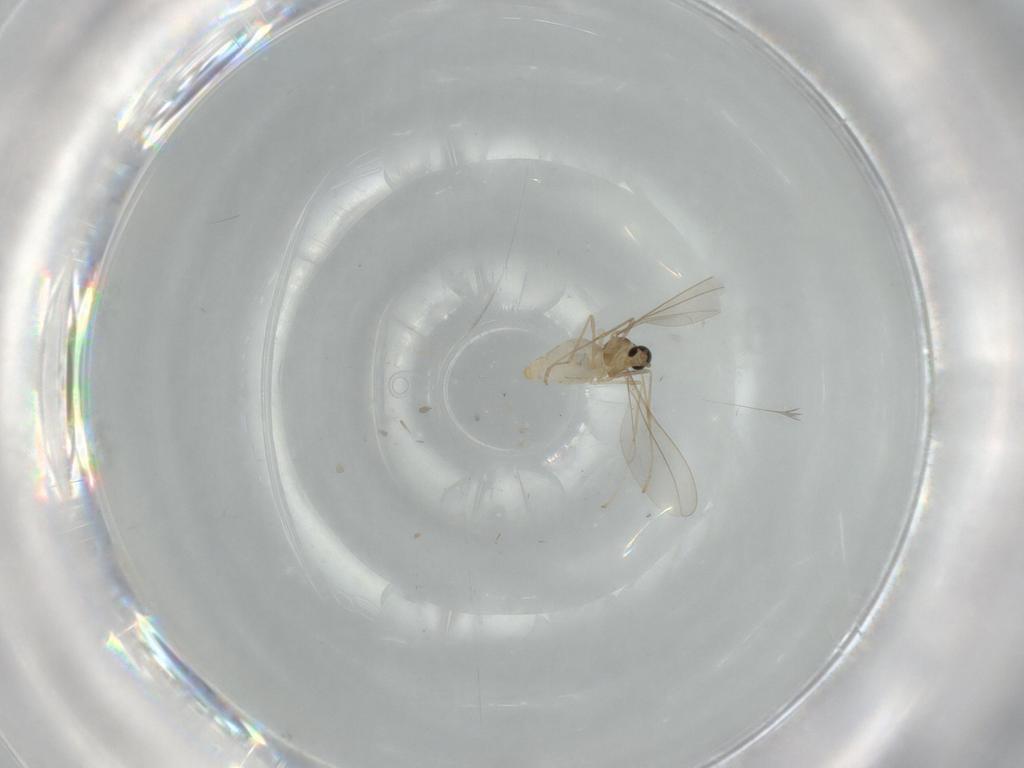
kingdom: Animalia
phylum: Arthropoda
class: Insecta
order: Diptera
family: Cecidomyiidae
